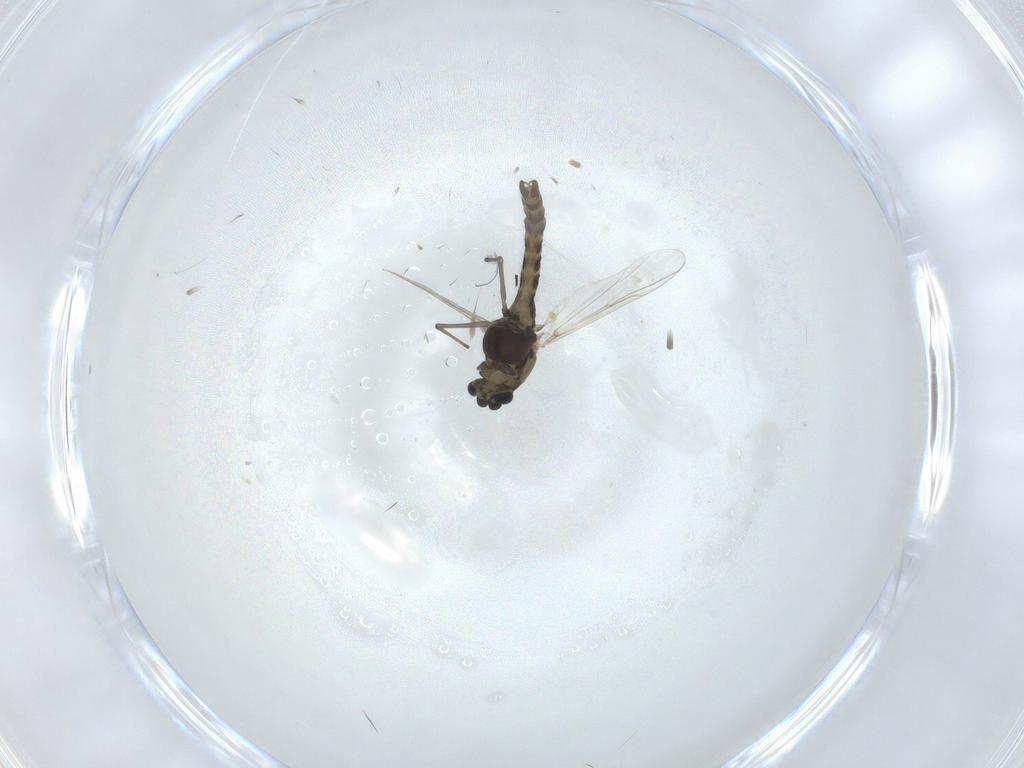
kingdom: Animalia
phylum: Arthropoda
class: Insecta
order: Diptera
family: Chironomidae
